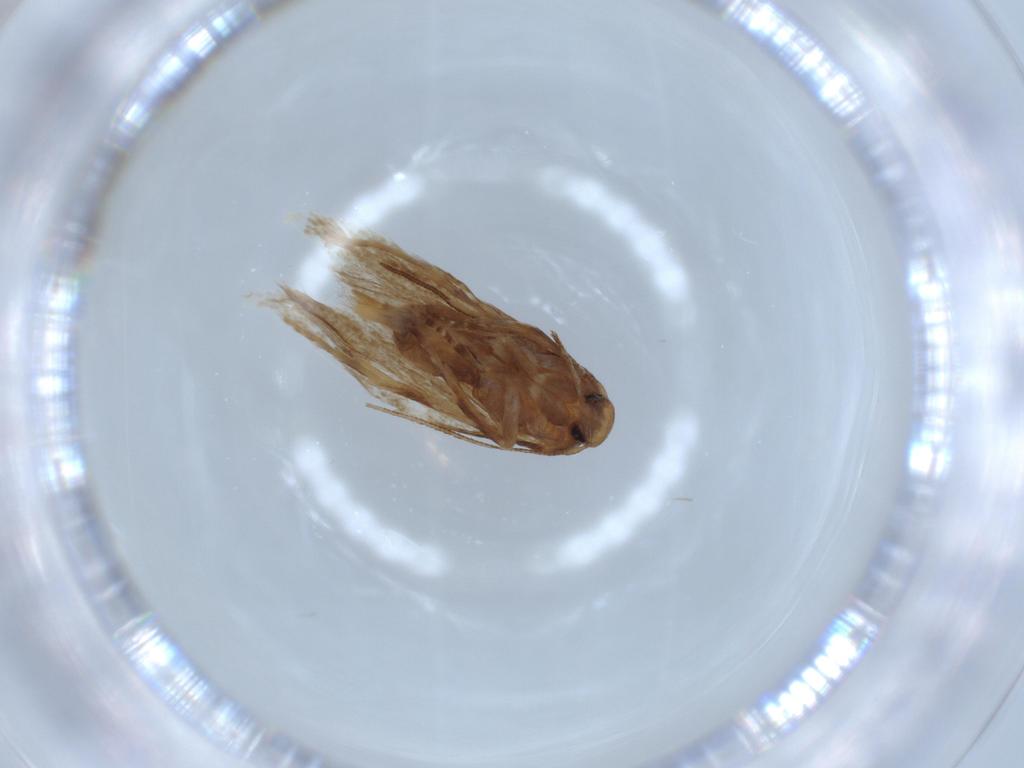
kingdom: Animalia
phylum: Arthropoda
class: Insecta
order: Lepidoptera
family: Elachistidae
